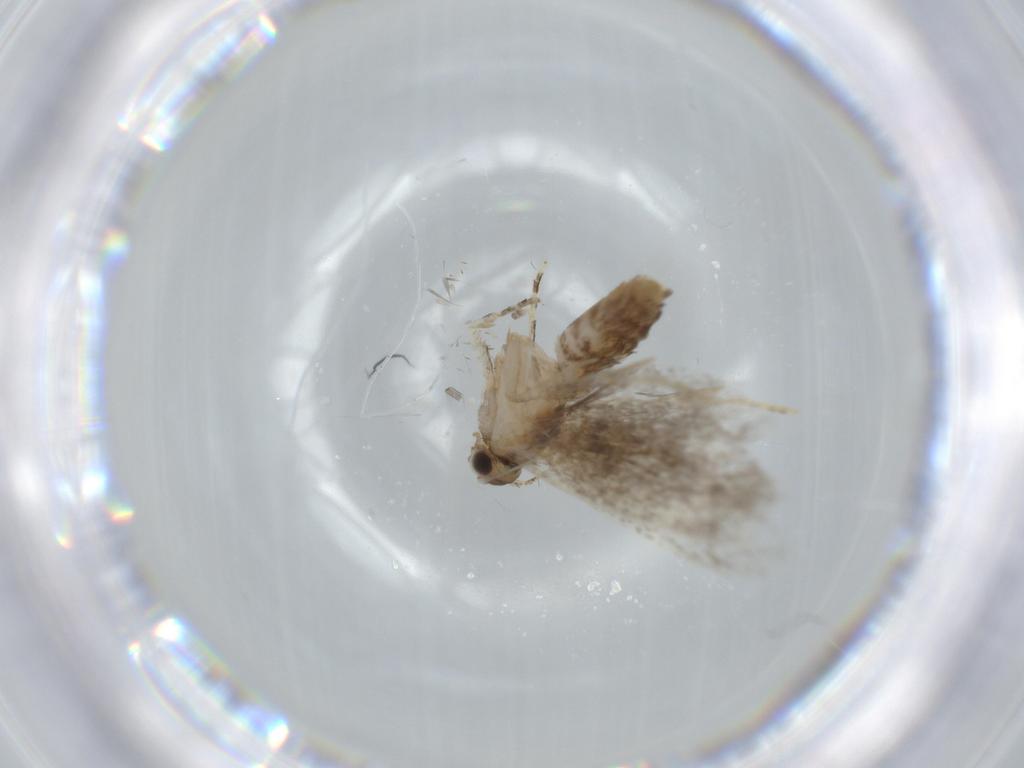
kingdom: Animalia
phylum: Arthropoda
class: Insecta
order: Lepidoptera
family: Tineidae
